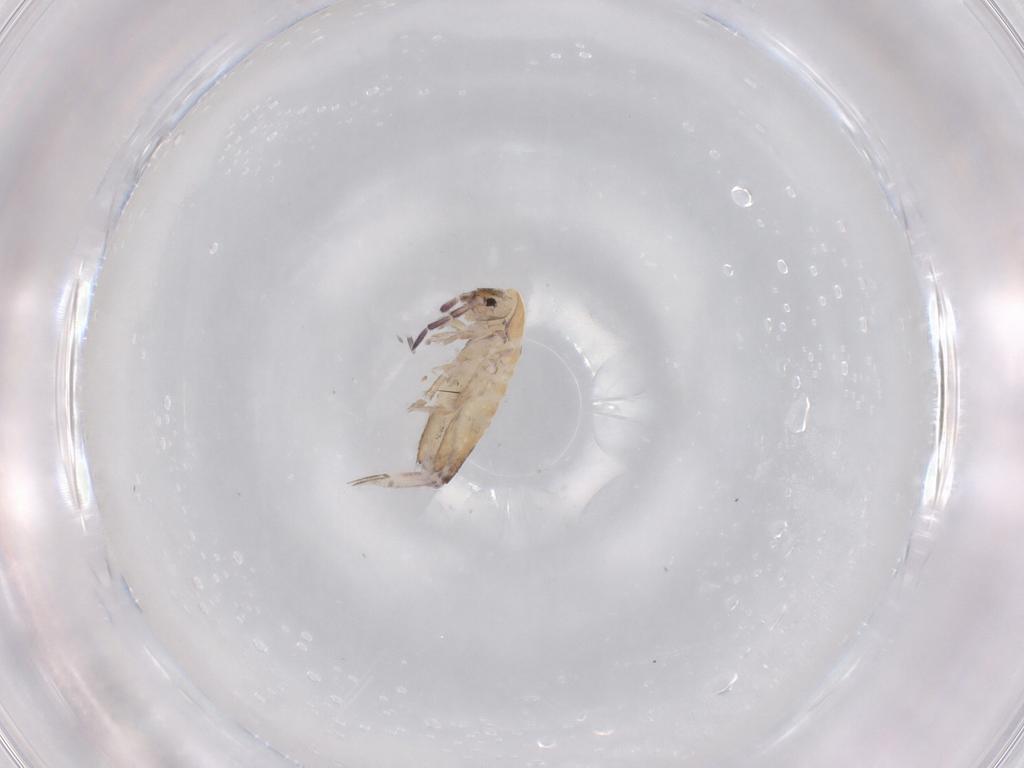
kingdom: Animalia
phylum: Arthropoda
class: Collembola
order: Entomobryomorpha
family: Entomobryidae
